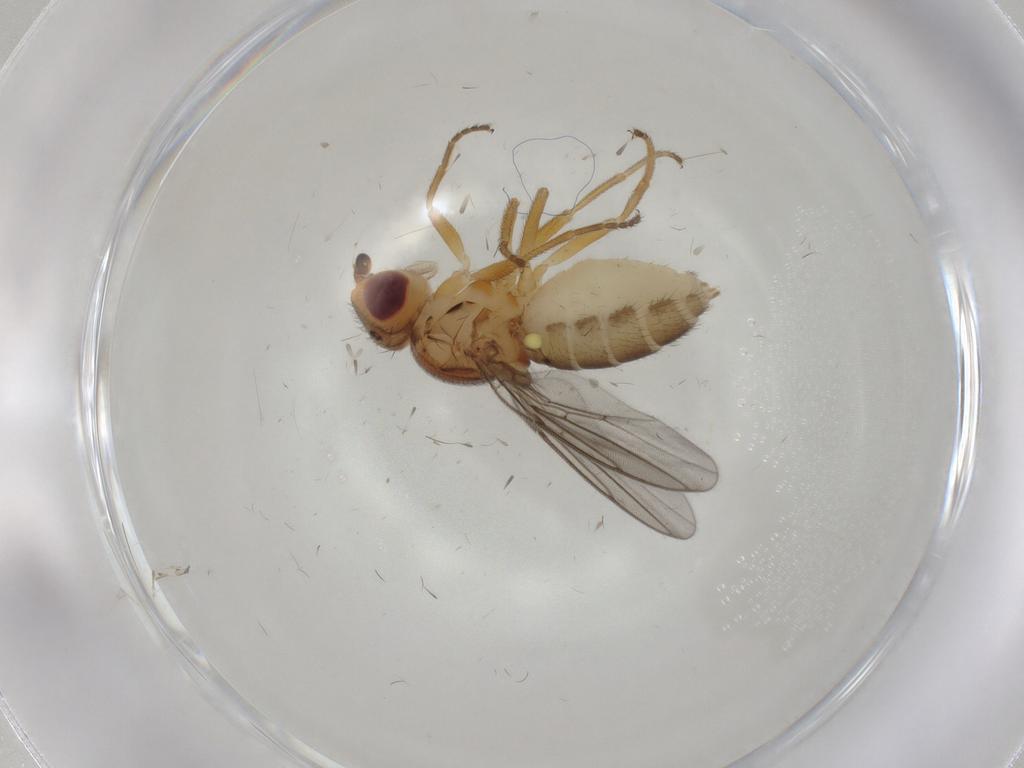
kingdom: Animalia
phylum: Arthropoda
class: Insecta
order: Diptera
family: Chloropidae
